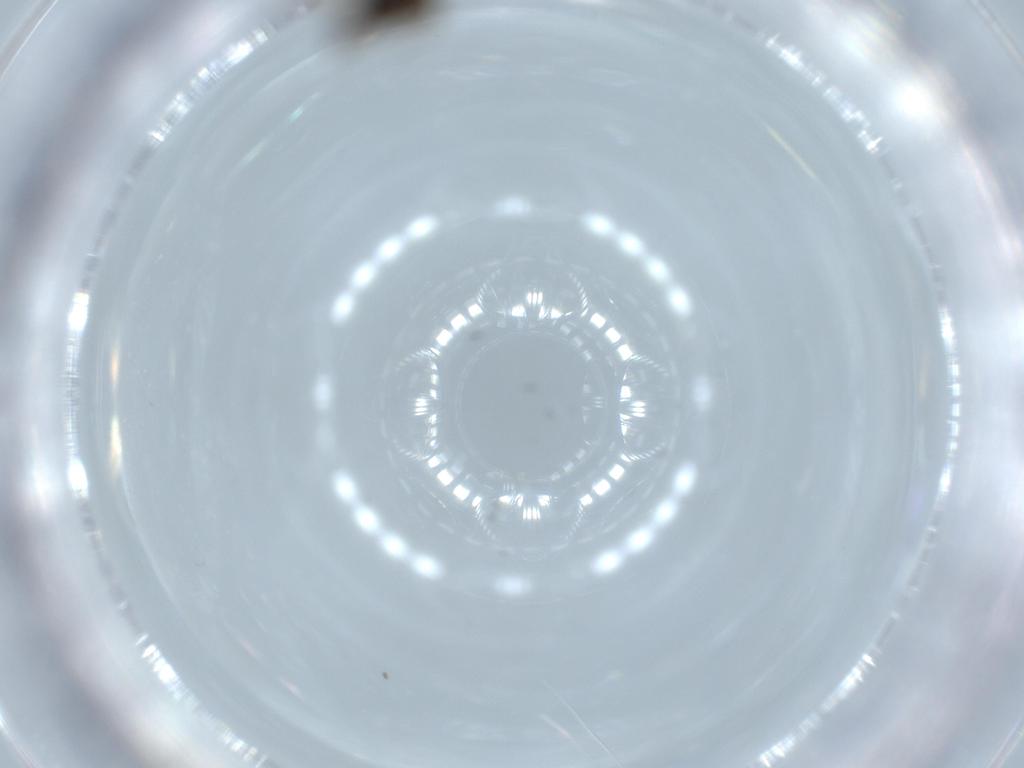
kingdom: Animalia
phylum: Arthropoda
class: Insecta
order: Hymenoptera
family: Scelionidae
